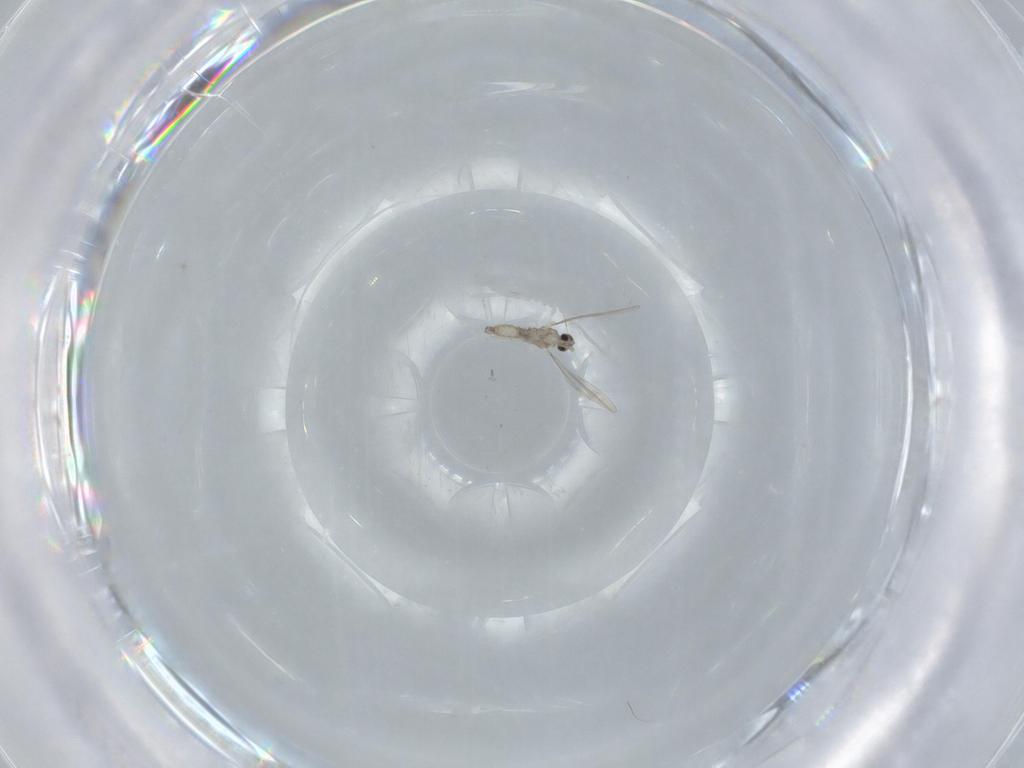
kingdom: Animalia
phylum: Arthropoda
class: Insecta
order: Diptera
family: Cecidomyiidae
